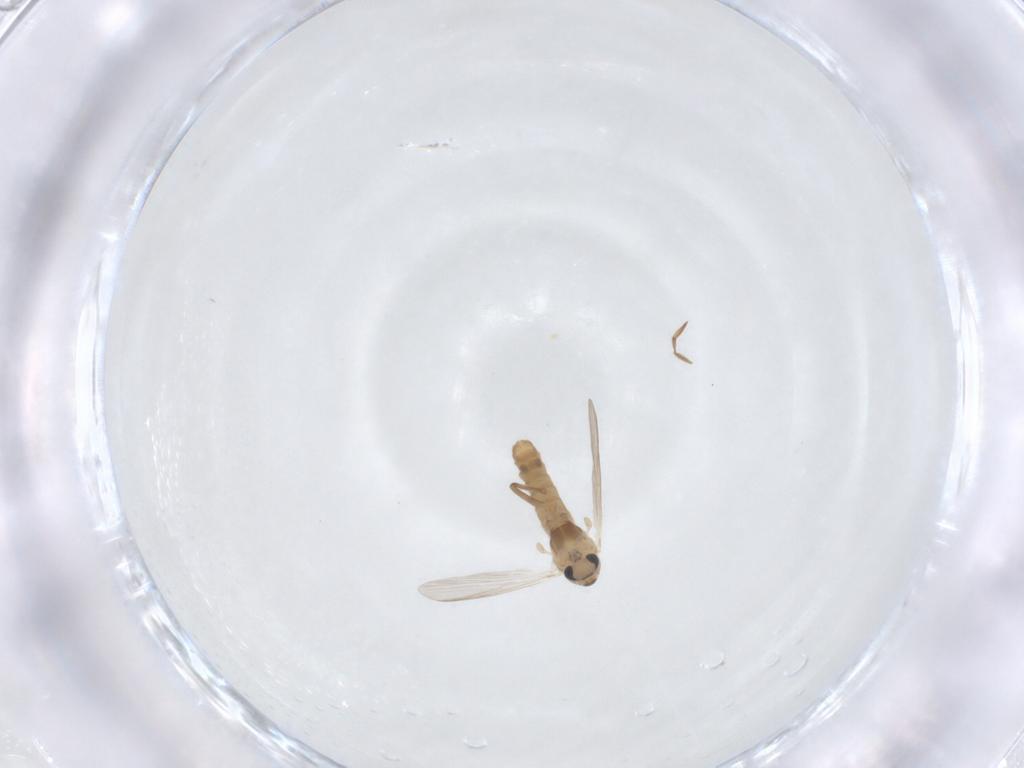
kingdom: Animalia
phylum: Arthropoda
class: Insecta
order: Diptera
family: Chironomidae
